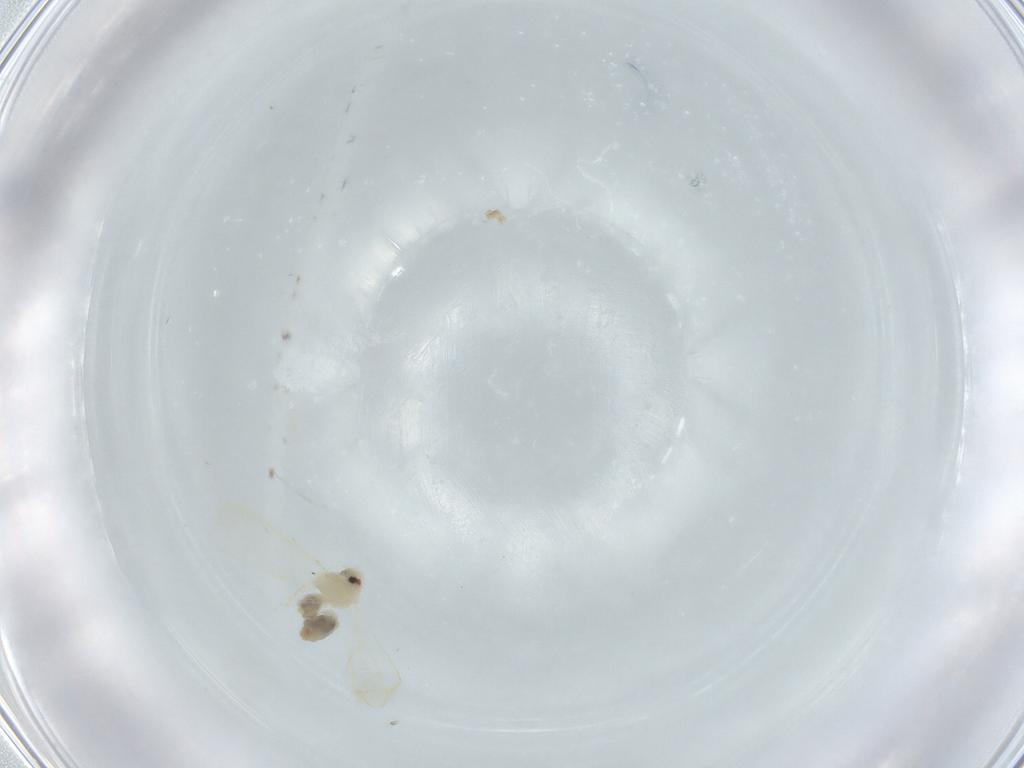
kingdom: Animalia
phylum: Arthropoda
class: Insecta
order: Hemiptera
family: Aleyrodidae
